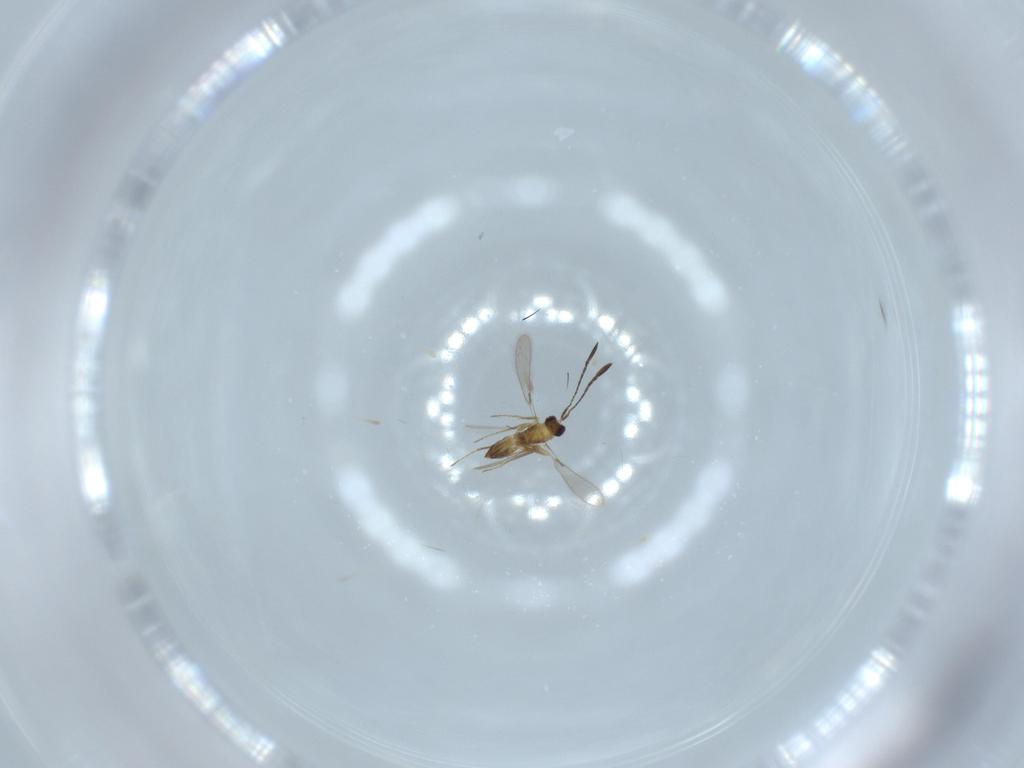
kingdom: Animalia
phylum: Arthropoda
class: Insecta
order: Hymenoptera
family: Mymaridae
